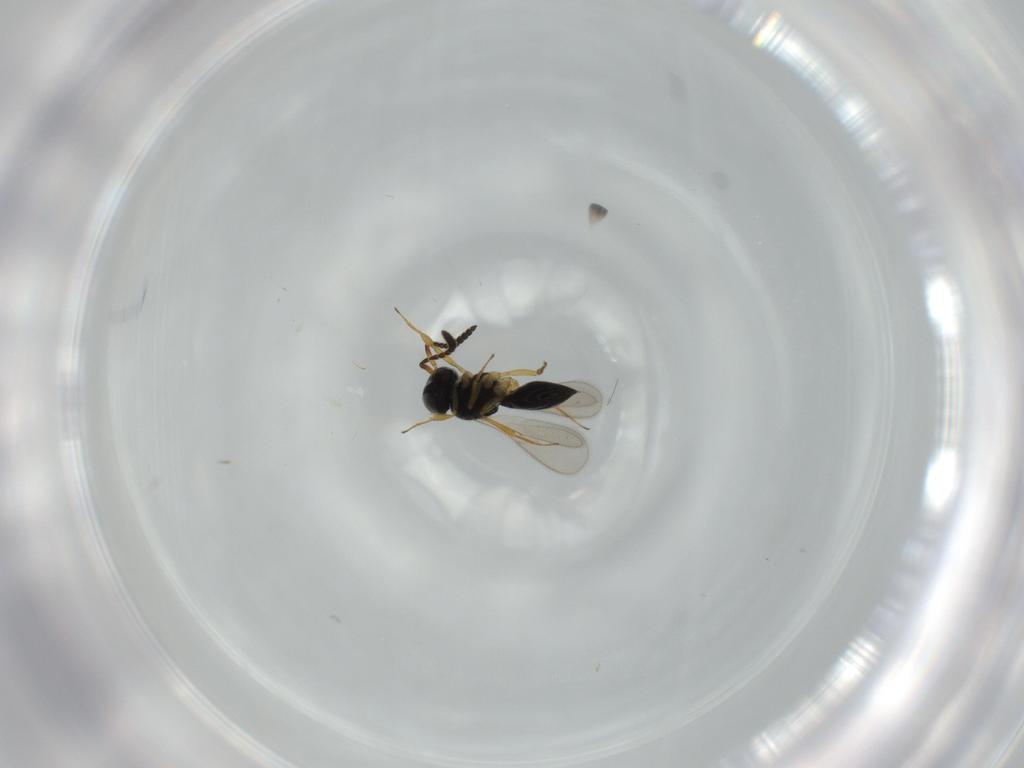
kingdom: Animalia
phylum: Arthropoda
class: Insecta
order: Hymenoptera
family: Scelionidae
